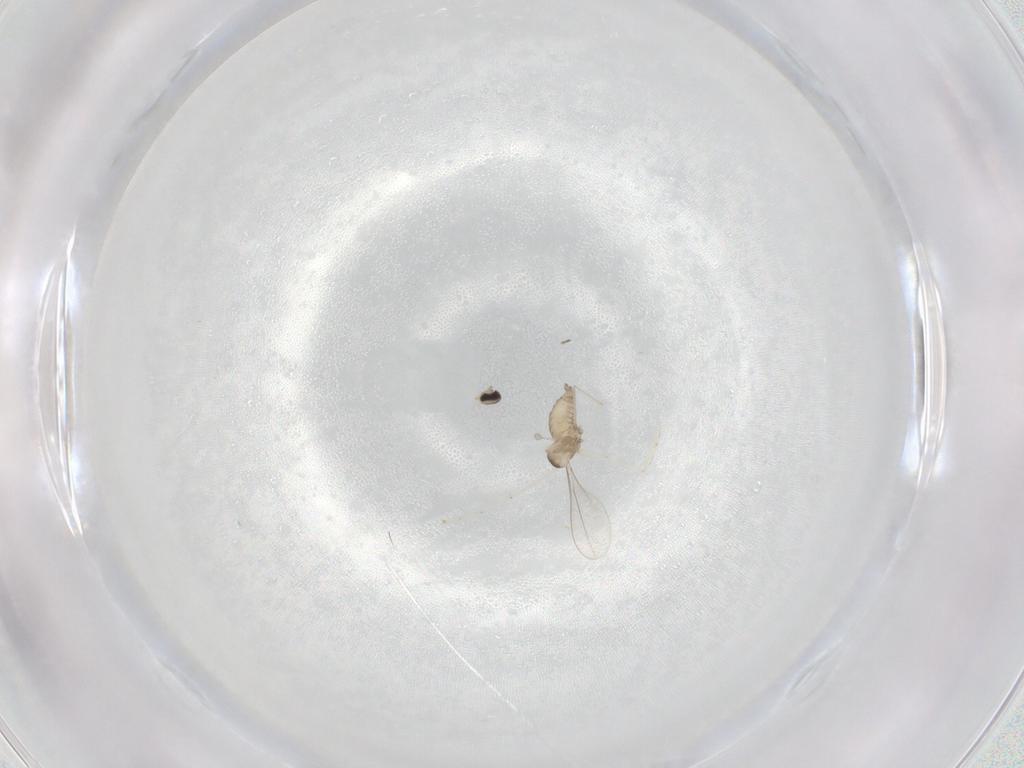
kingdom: Animalia
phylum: Arthropoda
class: Insecta
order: Diptera
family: Cecidomyiidae
